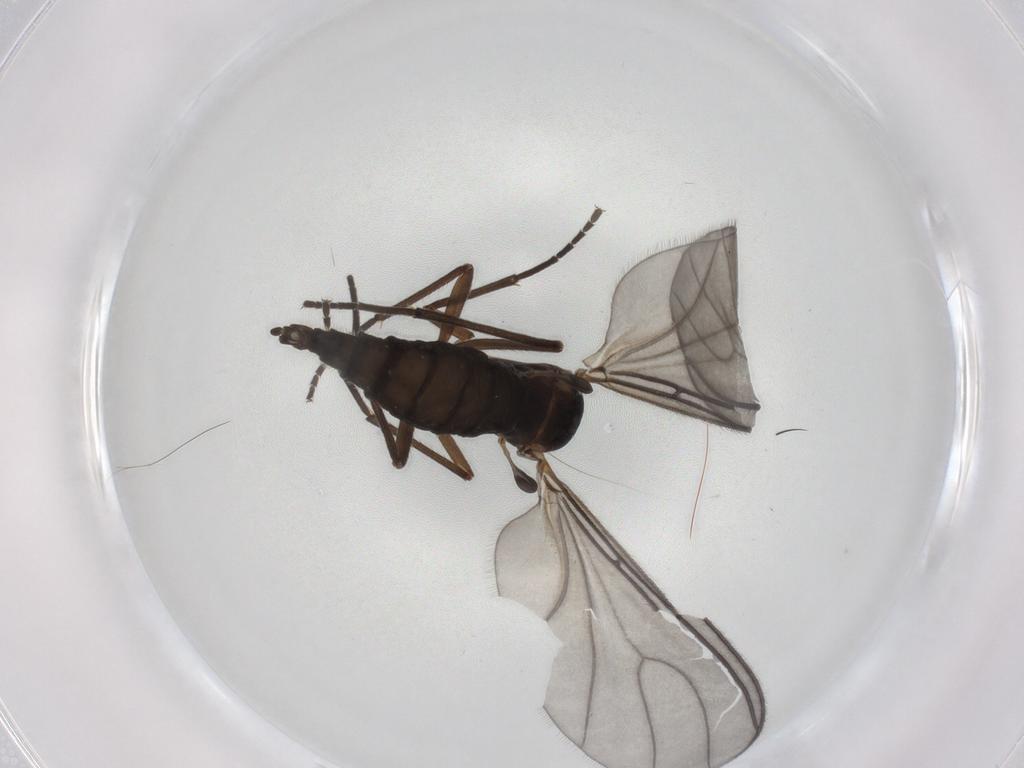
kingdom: Animalia
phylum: Arthropoda
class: Insecta
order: Diptera
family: Sciaridae
